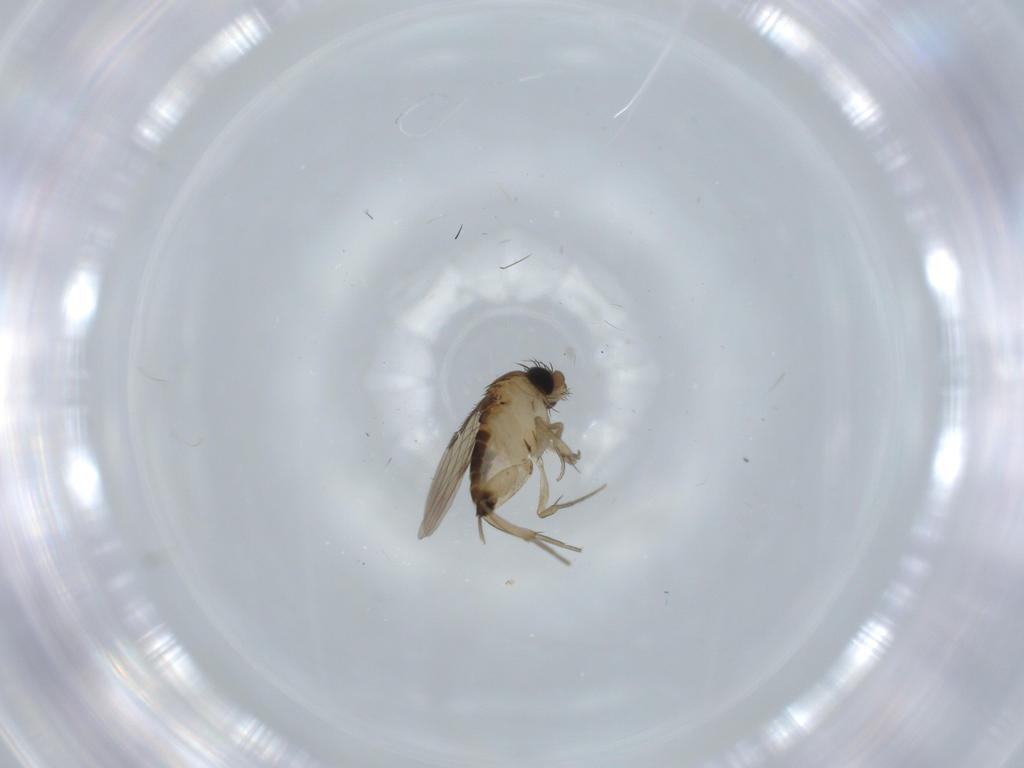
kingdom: Animalia
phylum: Arthropoda
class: Insecta
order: Diptera
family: Phoridae
